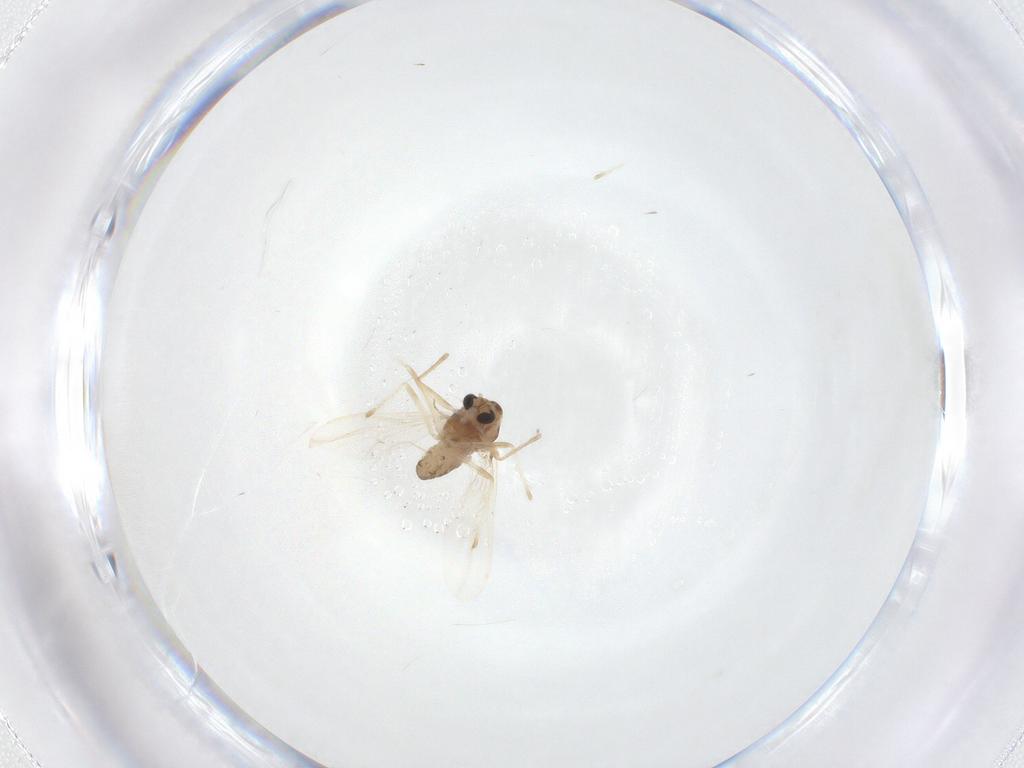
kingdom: Animalia
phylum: Arthropoda
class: Insecta
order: Diptera
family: Chironomidae
